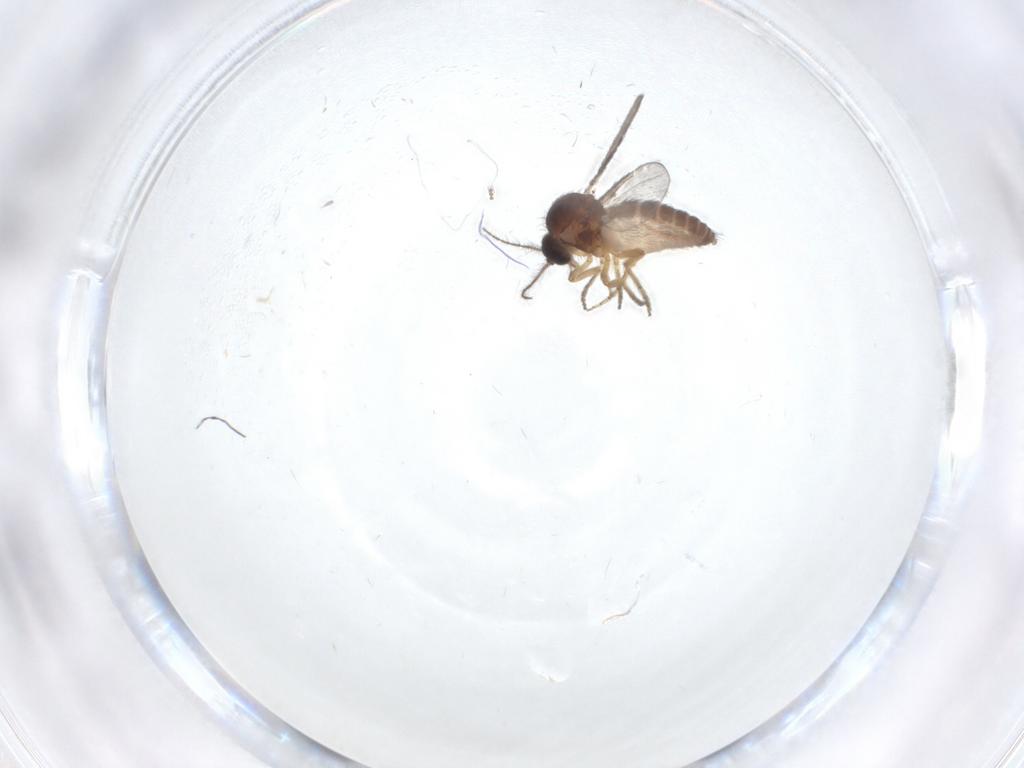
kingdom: Animalia
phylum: Arthropoda
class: Insecta
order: Diptera
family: Ceratopogonidae
